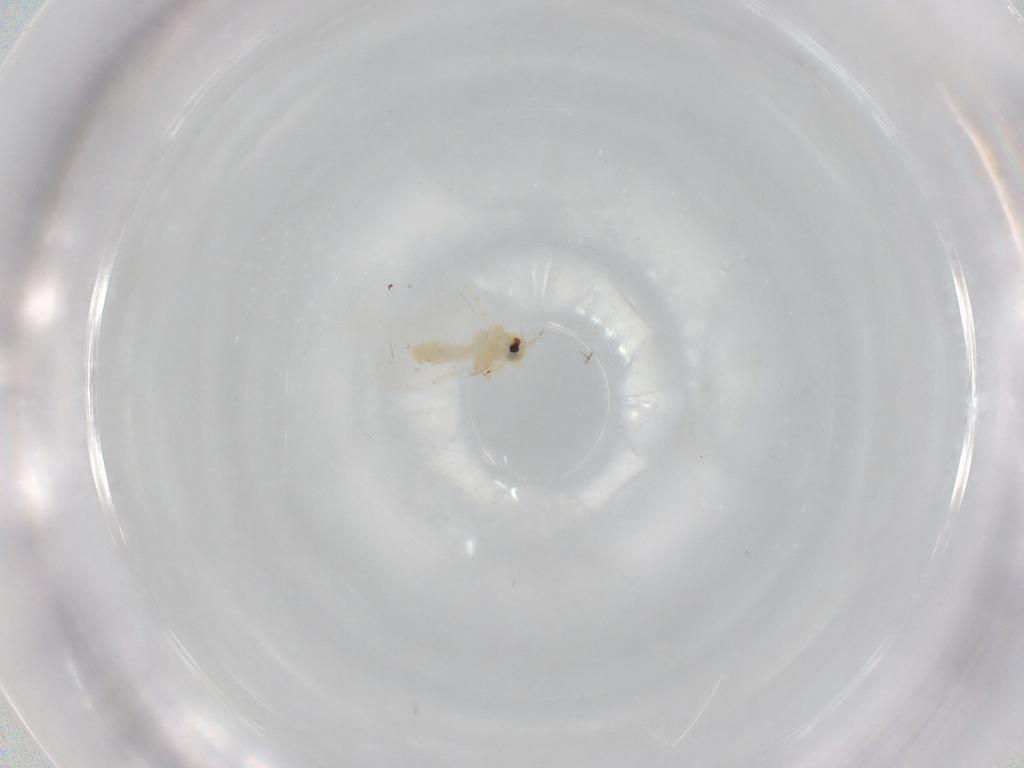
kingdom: Animalia
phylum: Arthropoda
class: Insecta
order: Hemiptera
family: Aleyrodidae
